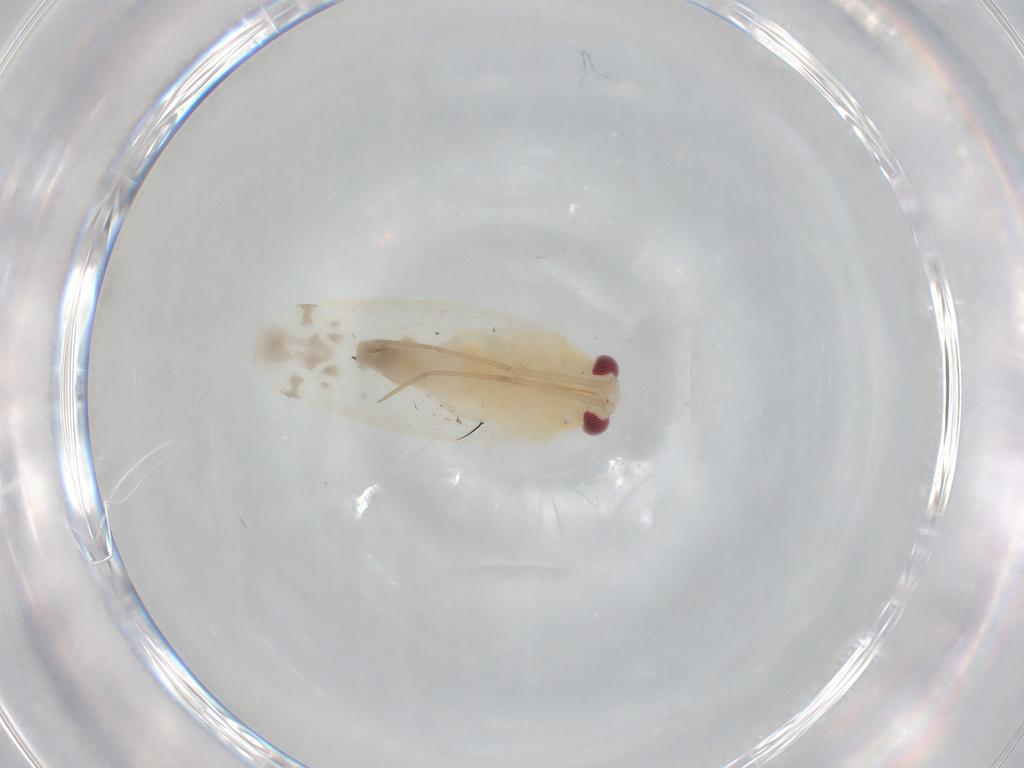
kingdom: Animalia
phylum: Arthropoda
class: Insecta
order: Hemiptera
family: Miridae
